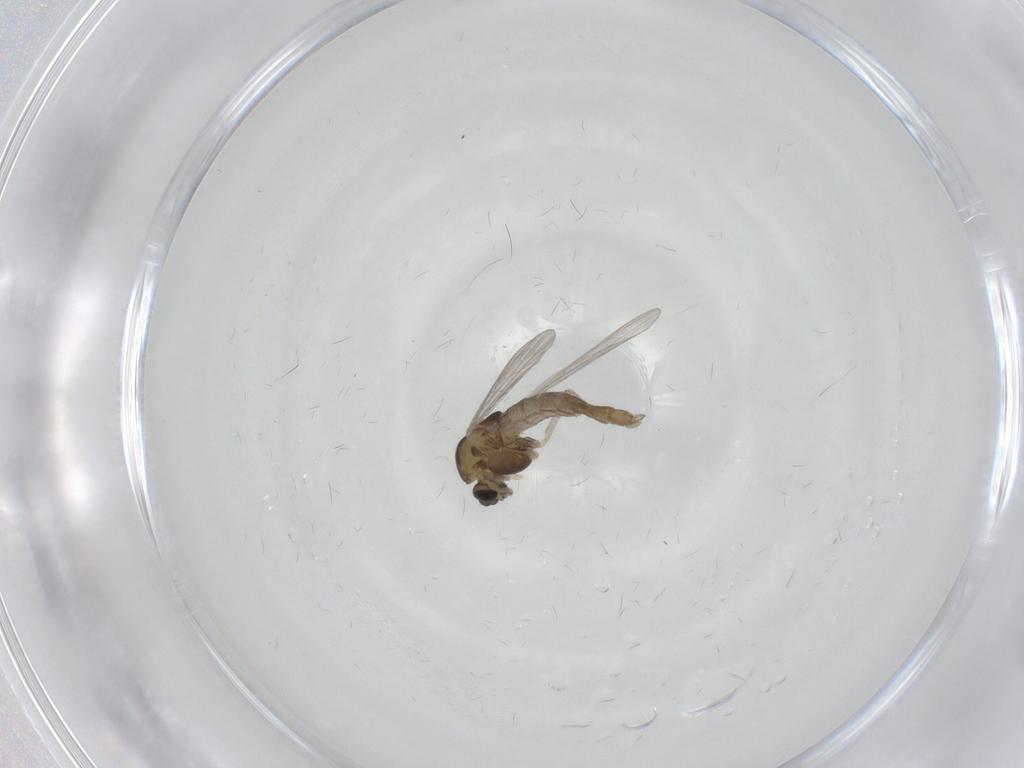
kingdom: Animalia
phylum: Arthropoda
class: Insecta
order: Diptera
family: Chironomidae
